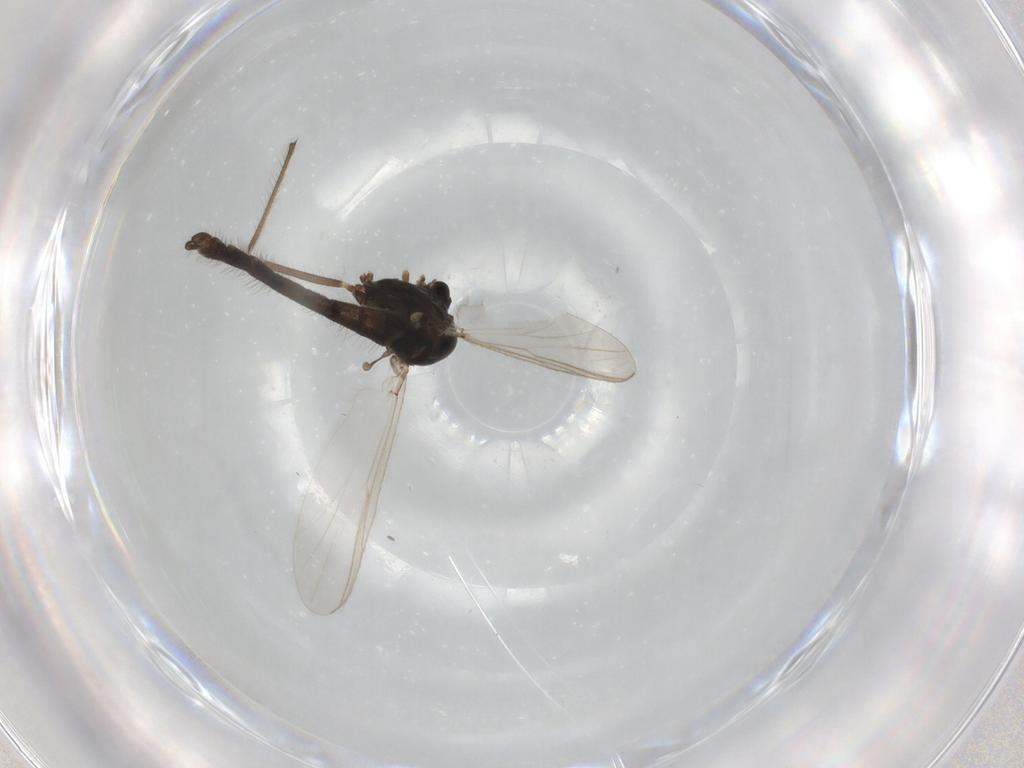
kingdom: Animalia
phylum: Arthropoda
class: Insecta
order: Diptera
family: Chironomidae
